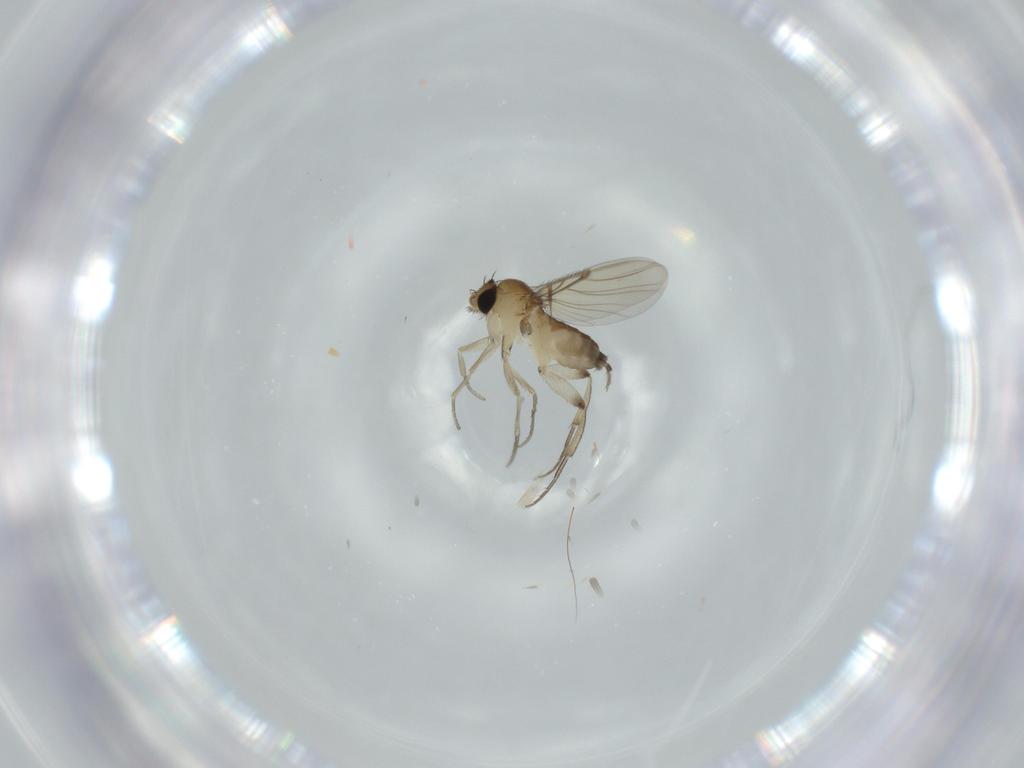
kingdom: Animalia
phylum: Arthropoda
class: Insecta
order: Diptera
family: Phoridae
